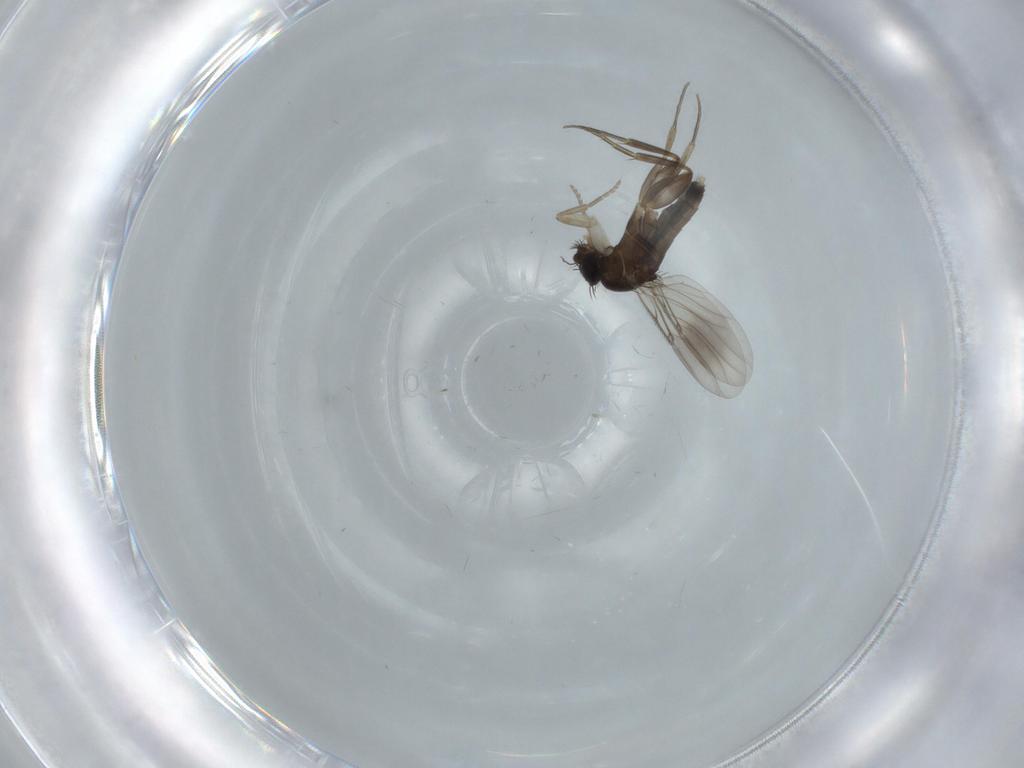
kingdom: Animalia
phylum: Arthropoda
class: Insecta
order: Diptera
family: Phoridae
